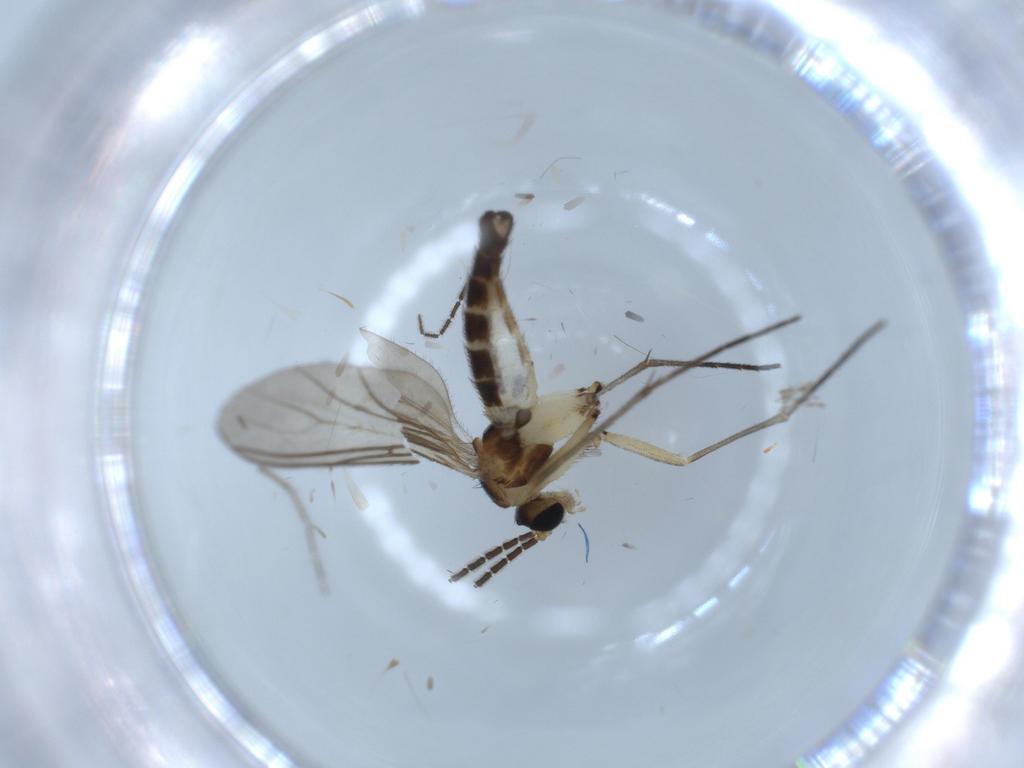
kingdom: Animalia
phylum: Arthropoda
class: Insecta
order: Diptera
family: Sciaridae
